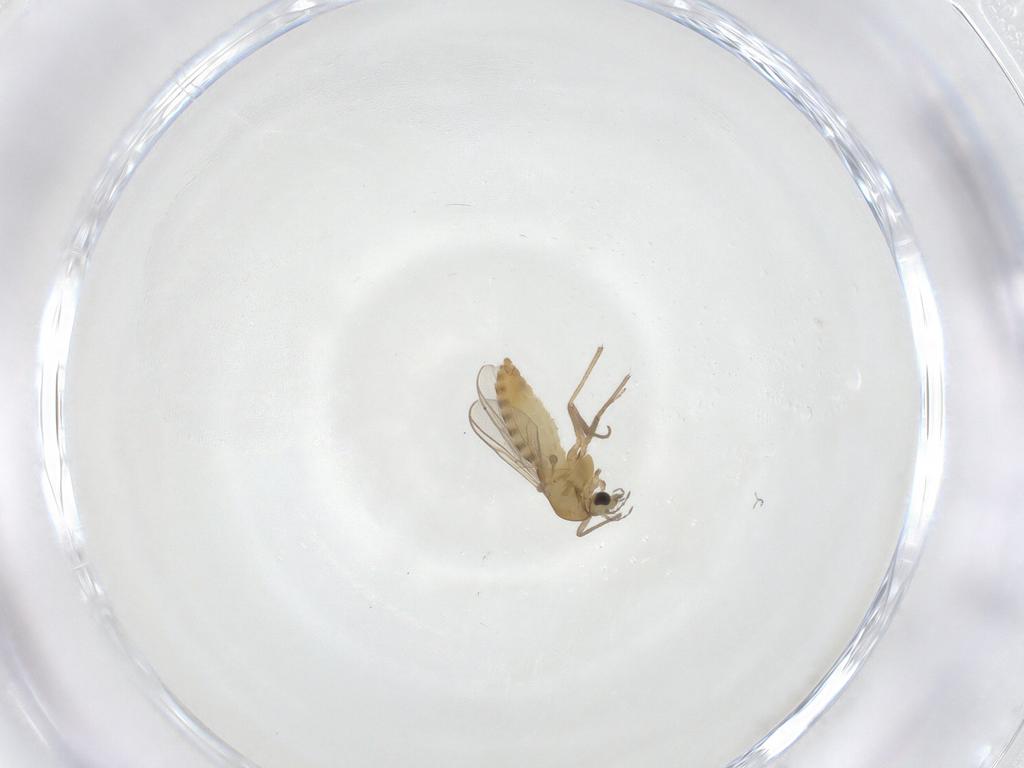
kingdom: Animalia
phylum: Arthropoda
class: Insecta
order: Diptera
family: Chironomidae
